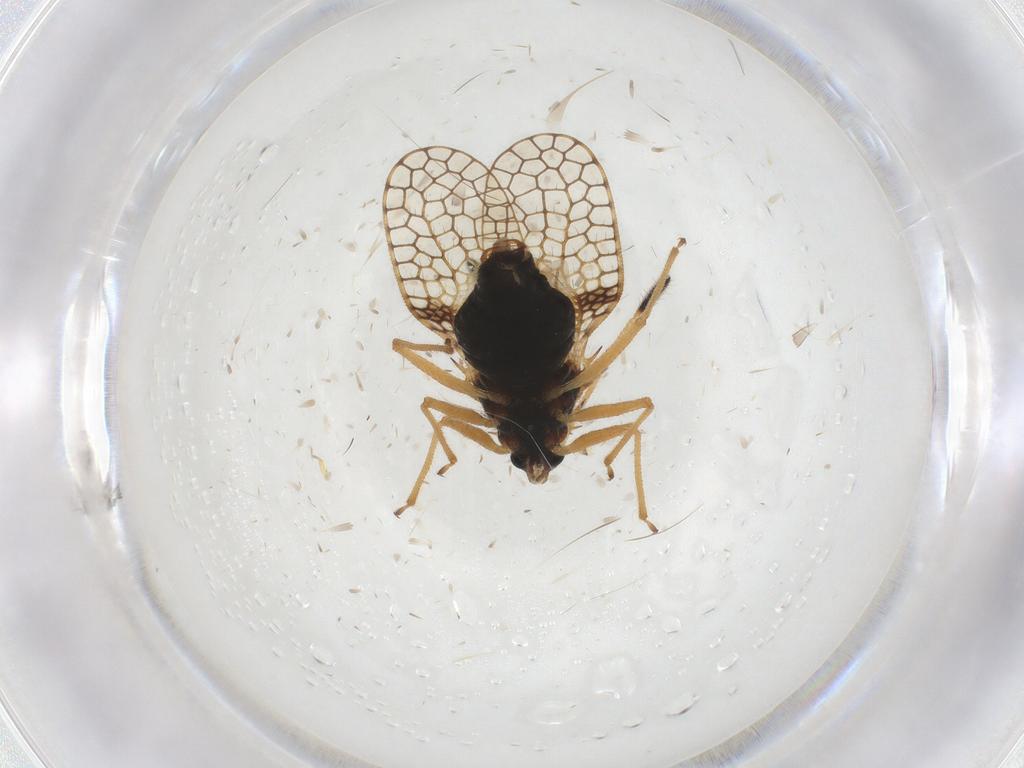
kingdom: Animalia
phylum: Arthropoda
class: Insecta
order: Hemiptera
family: Tingidae
